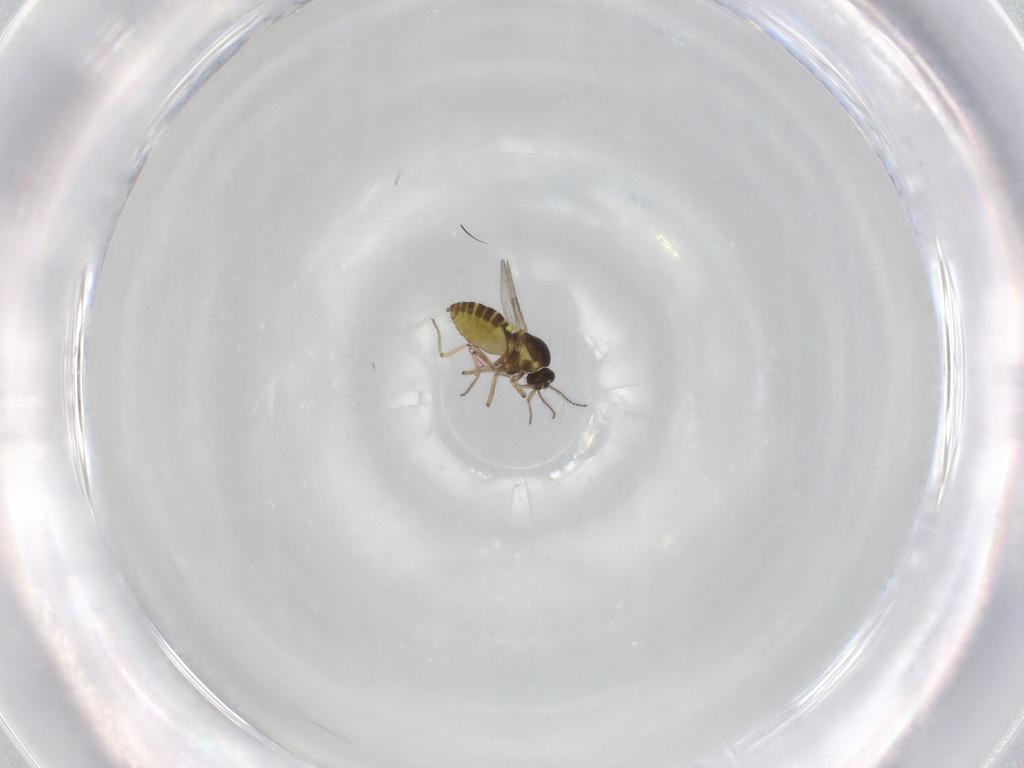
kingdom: Animalia
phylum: Arthropoda
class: Insecta
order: Diptera
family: Ceratopogonidae
